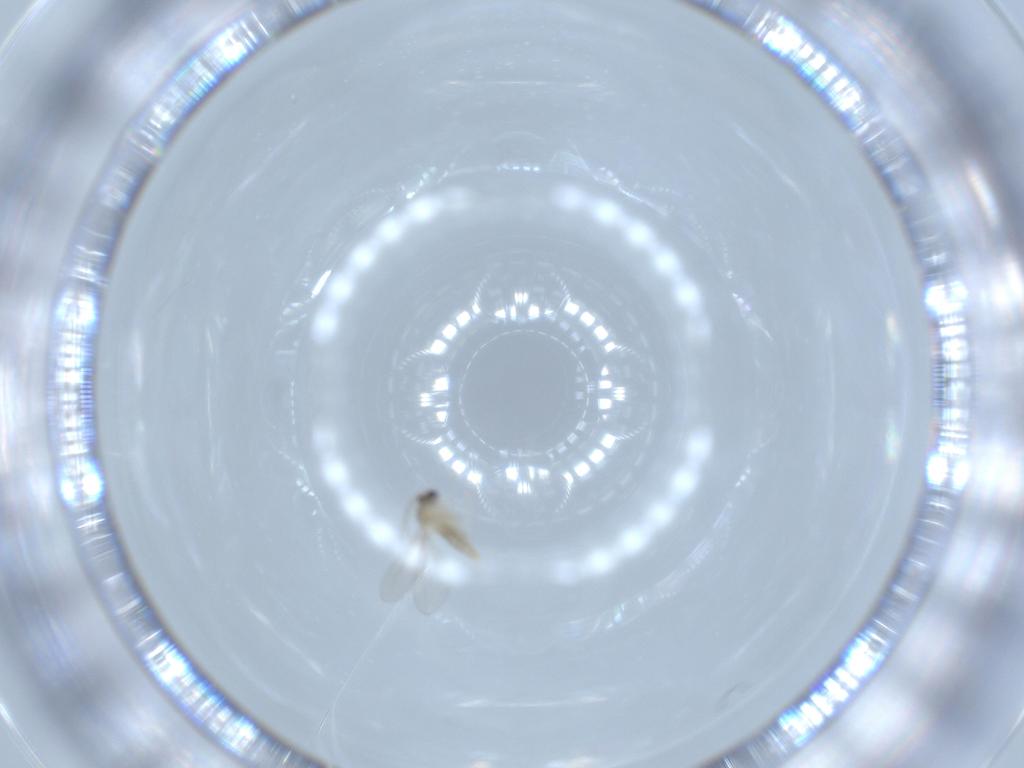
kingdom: Animalia
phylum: Arthropoda
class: Insecta
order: Diptera
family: Cecidomyiidae
